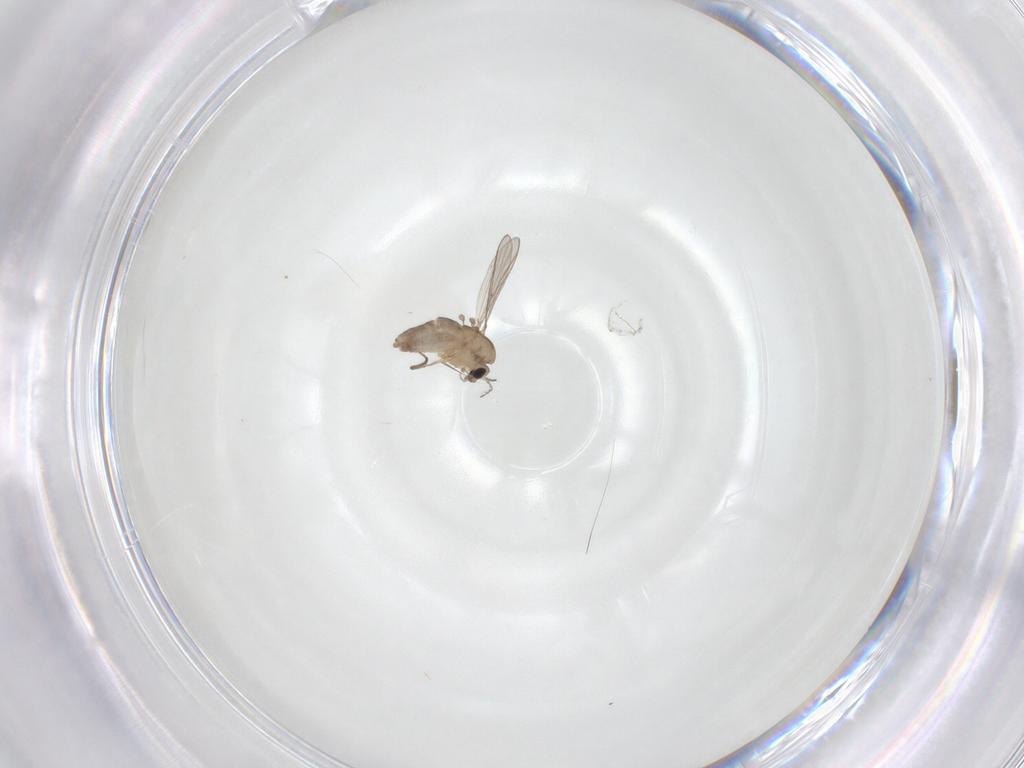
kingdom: Animalia
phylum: Arthropoda
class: Insecta
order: Diptera
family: Chironomidae
